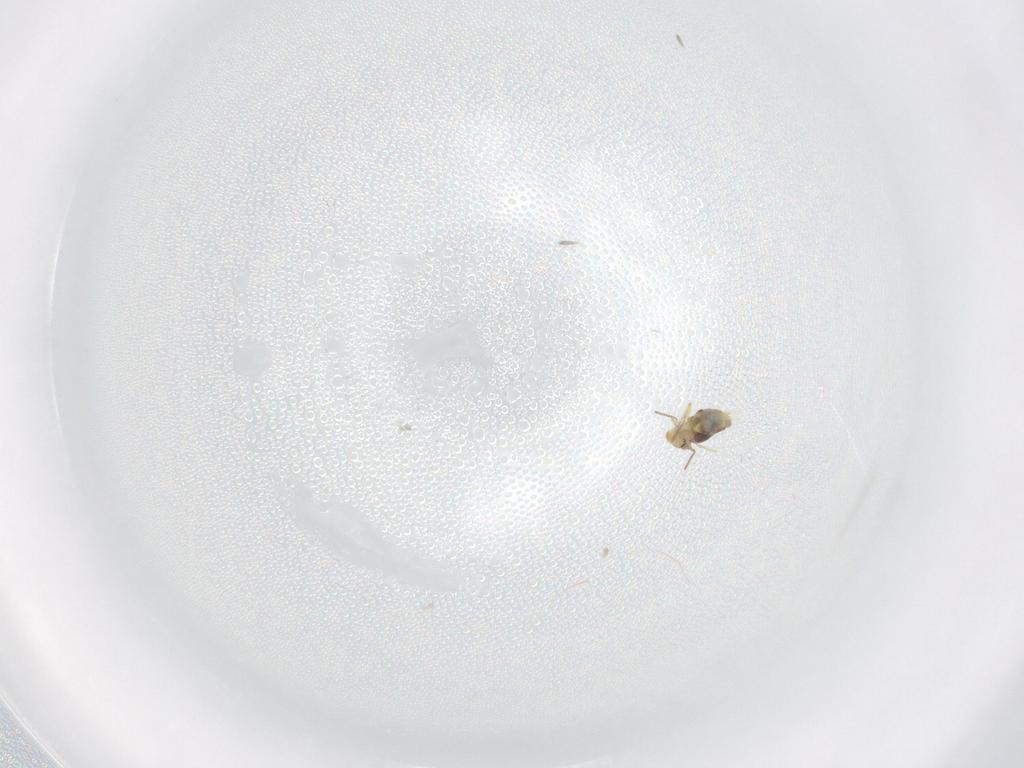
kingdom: Animalia
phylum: Arthropoda
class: Collembola
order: Symphypleona
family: Bourletiellidae
